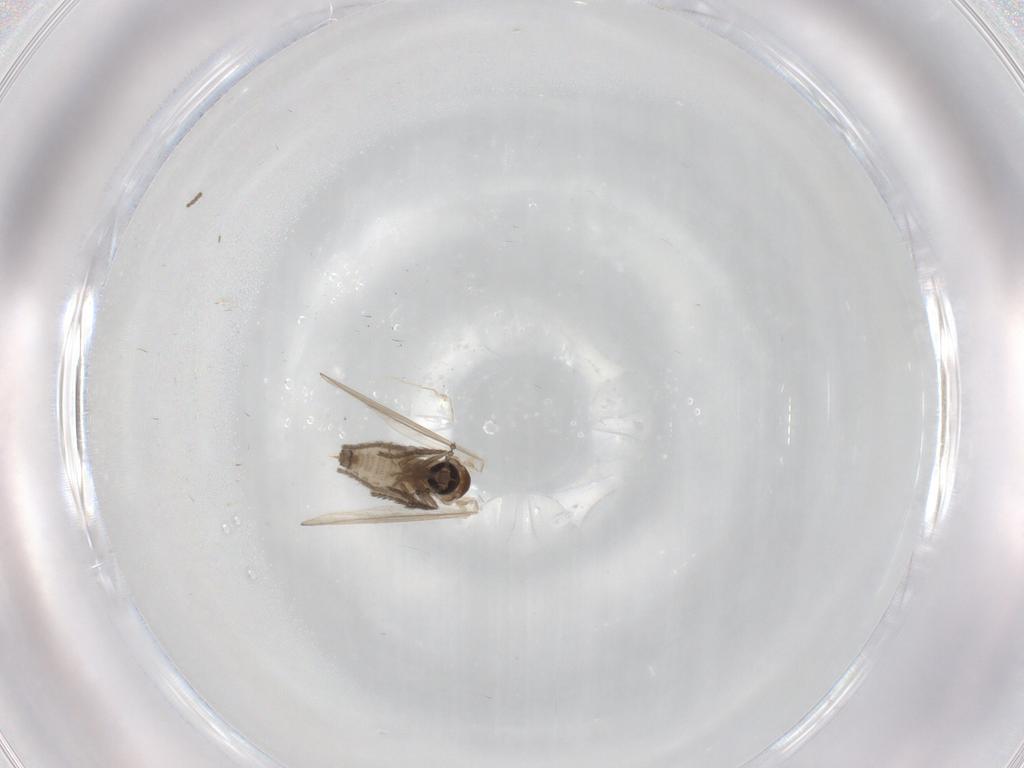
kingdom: Animalia
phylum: Arthropoda
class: Insecta
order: Diptera
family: Psychodidae
